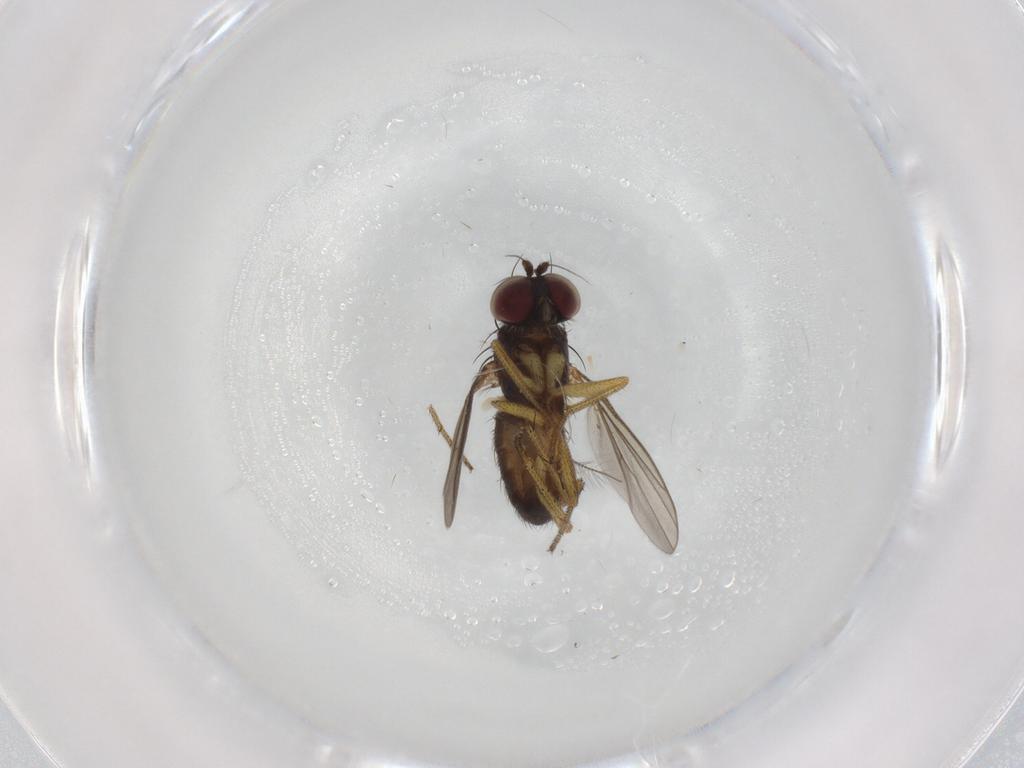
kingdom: Animalia
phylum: Arthropoda
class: Insecta
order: Diptera
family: Dolichopodidae
